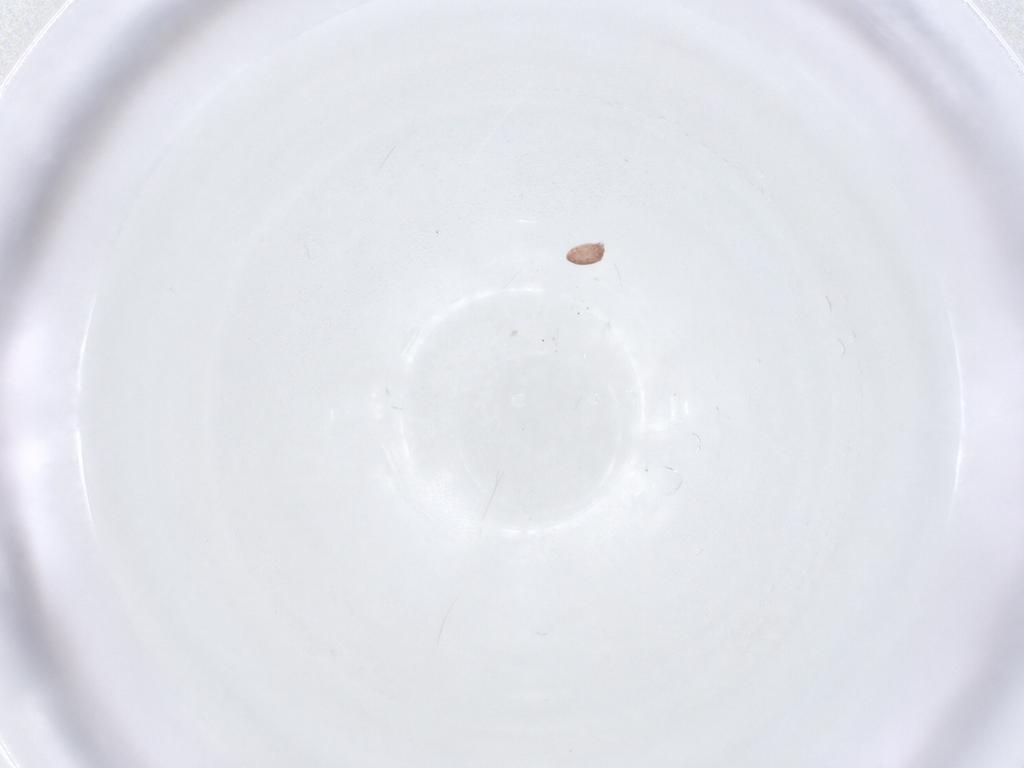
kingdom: Animalia
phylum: Arthropoda
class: Insecta
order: Diptera
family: Chironomidae
